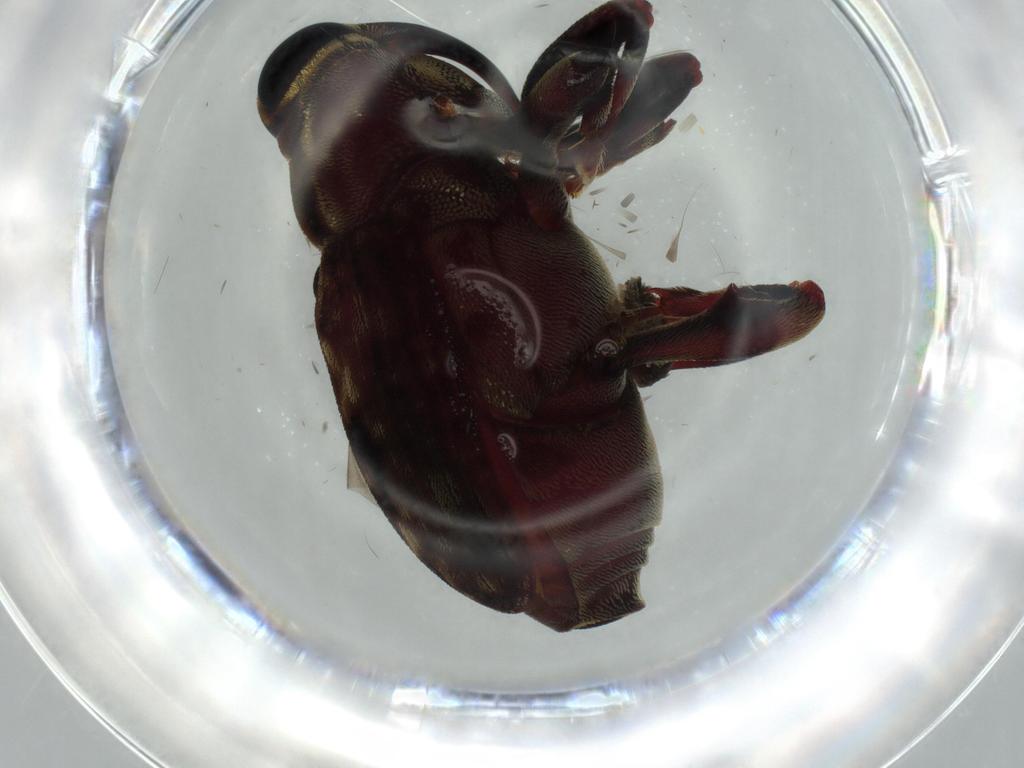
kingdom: Animalia
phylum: Arthropoda
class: Insecta
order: Coleoptera
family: Curculionidae
